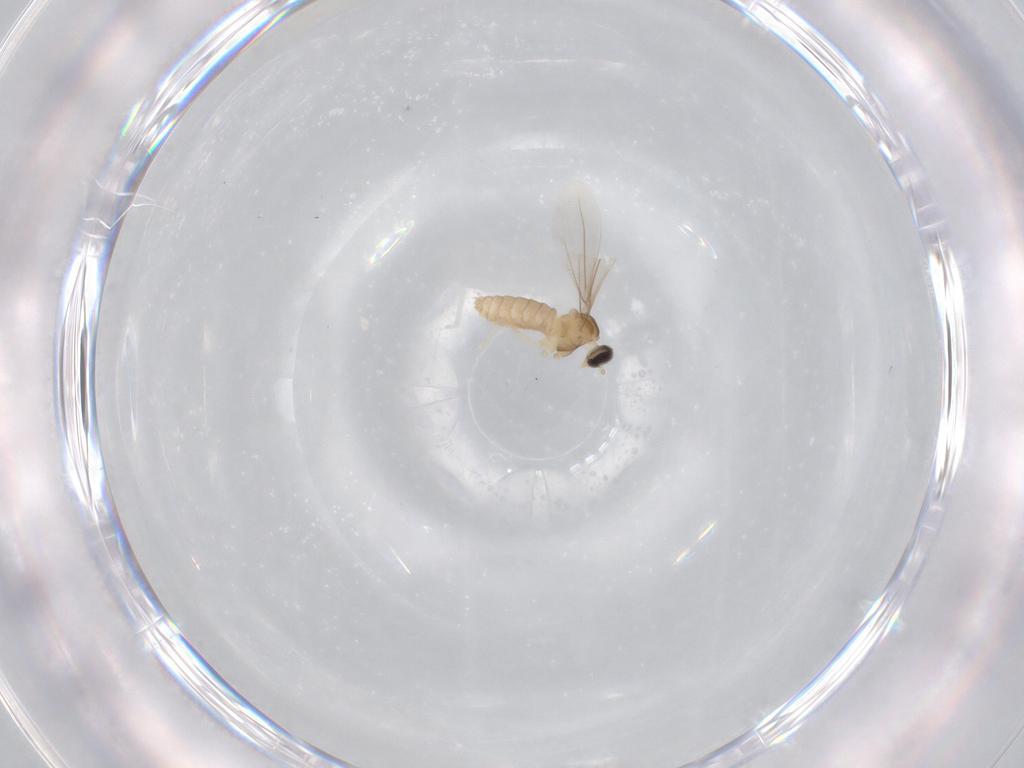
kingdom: Animalia
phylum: Arthropoda
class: Insecta
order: Diptera
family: Cecidomyiidae
